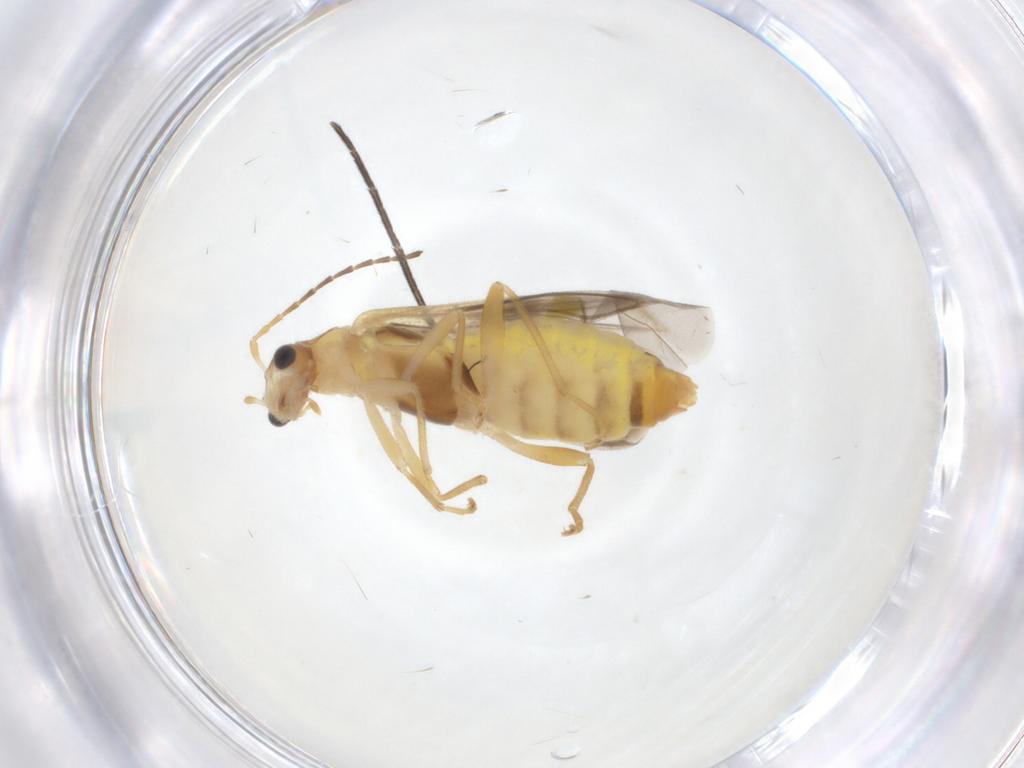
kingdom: Animalia
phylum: Arthropoda
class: Insecta
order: Coleoptera
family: Cantharidae
